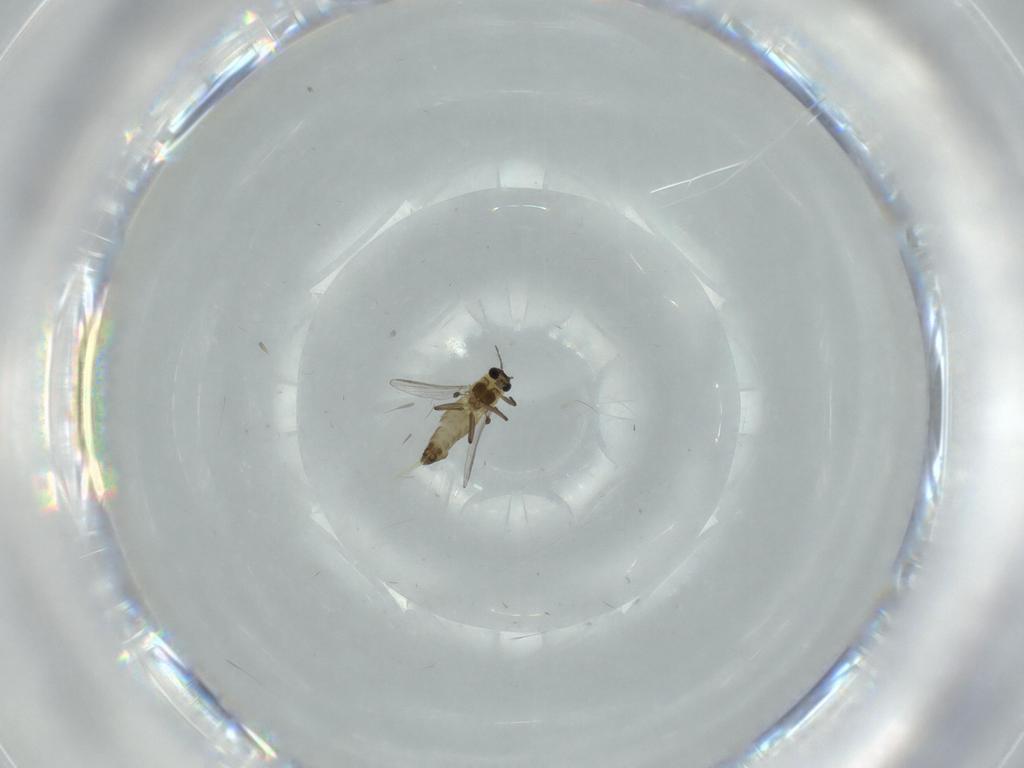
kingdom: Animalia
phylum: Arthropoda
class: Insecta
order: Diptera
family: Chironomidae
